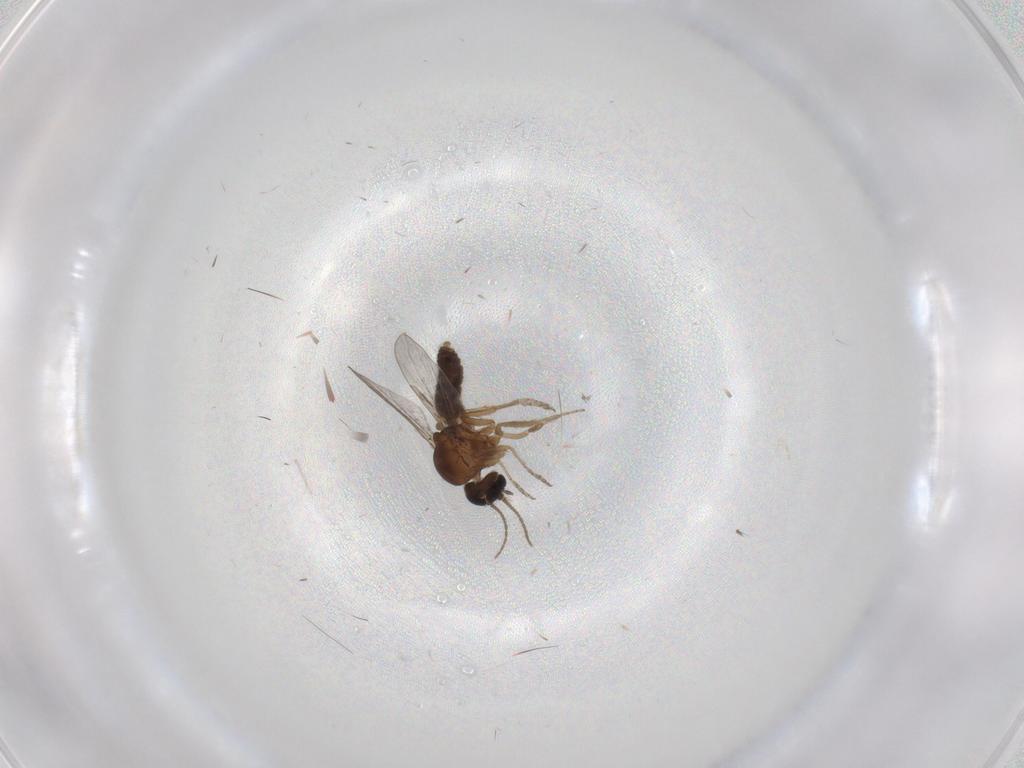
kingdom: Animalia
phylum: Arthropoda
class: Insecta
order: Diptera
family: Ceratopogonidae
